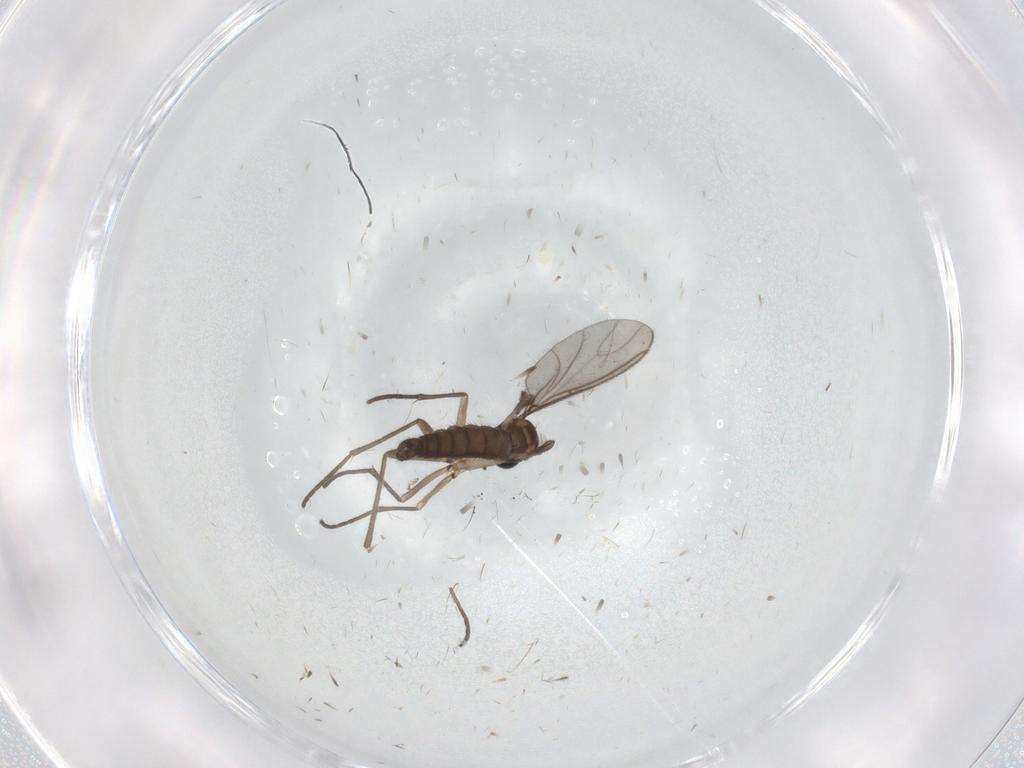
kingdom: Animalia
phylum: Arthropoda
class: Insecta
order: Diptera
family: Sciaridae
